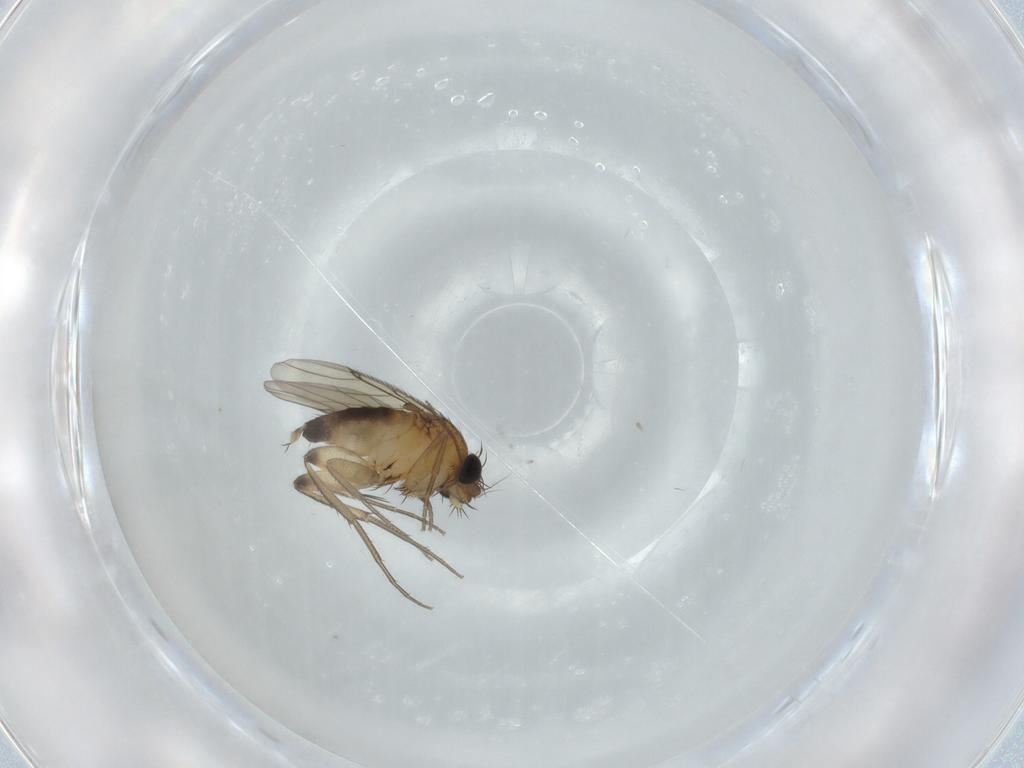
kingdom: Animalia
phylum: Arthropoda
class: Insecta
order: Diptera
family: Phoridae
